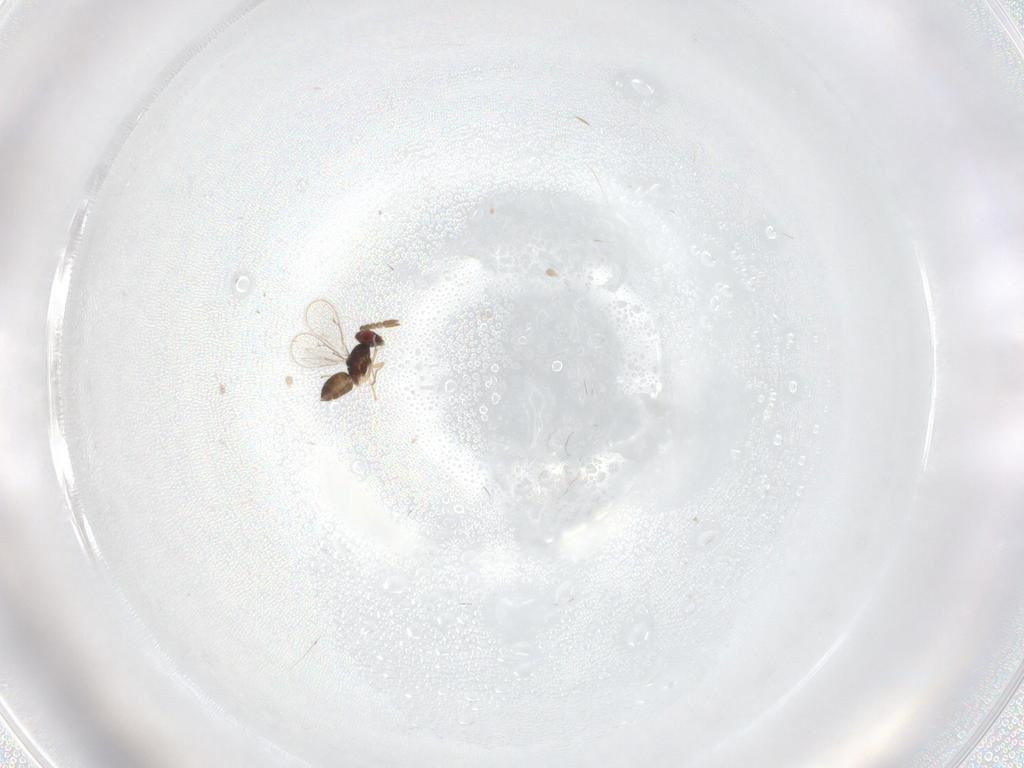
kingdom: Animalia
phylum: Arthropoda
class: Insecta
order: Hymenoptera
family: Eulophidae
